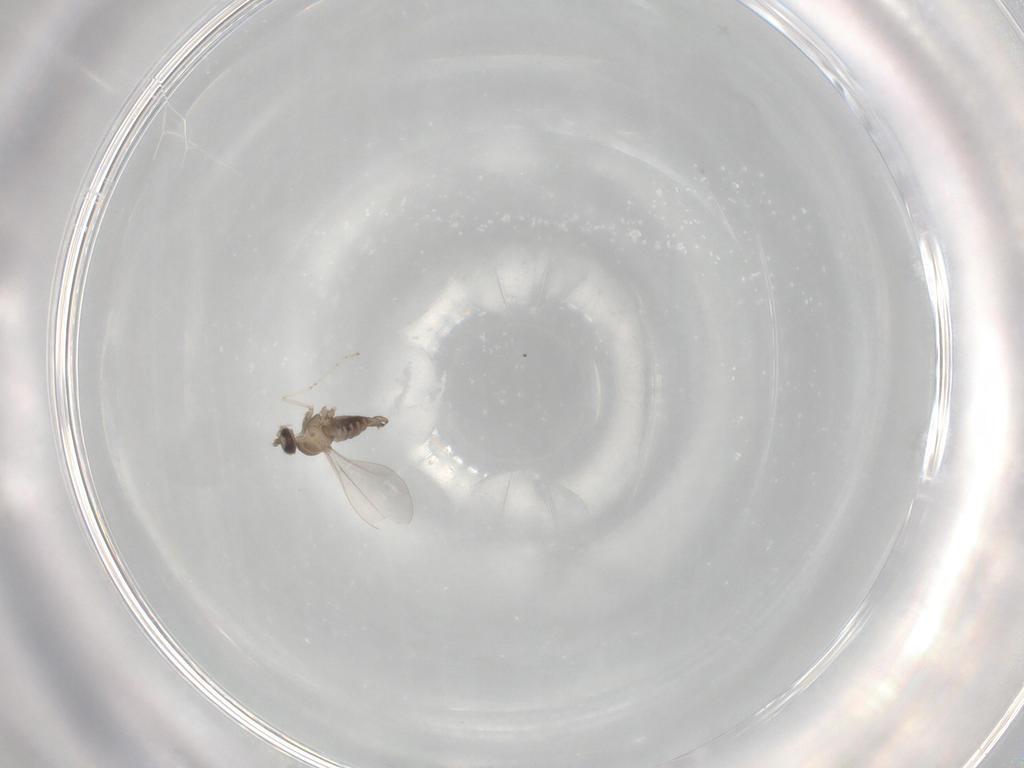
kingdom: Animalia
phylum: Arthropoda
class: Insecta
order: Diptera
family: Cecidomyiidae
